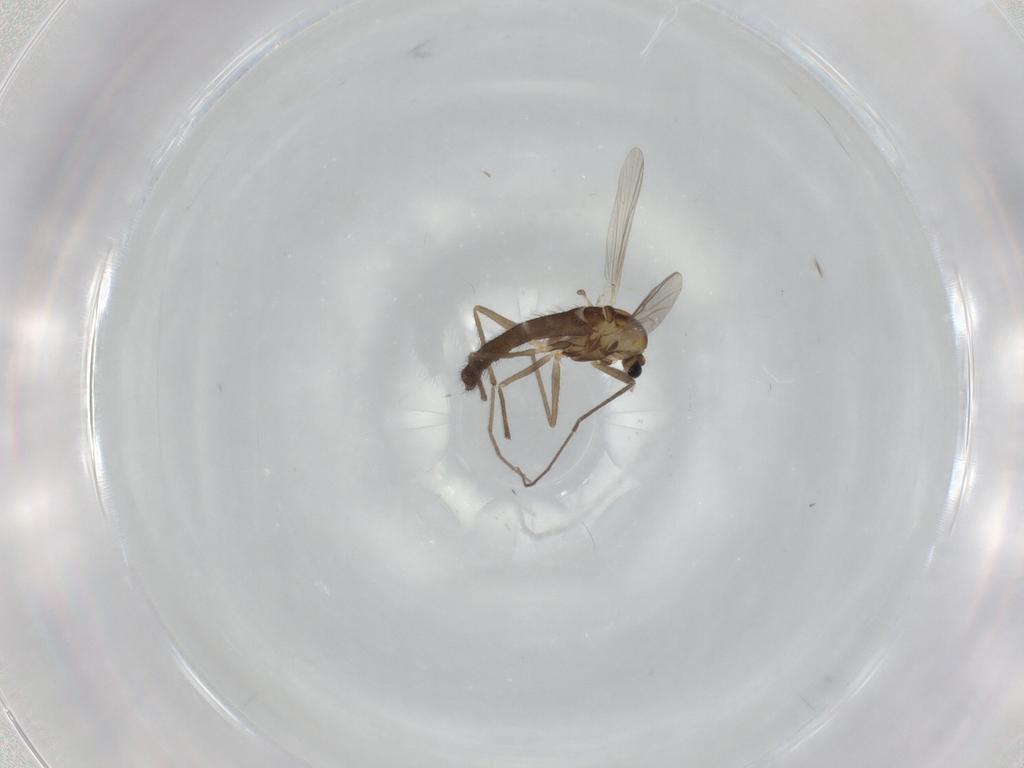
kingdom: Animalia
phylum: Arthropoda
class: Insecta
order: Diptera
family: Chironomidae
